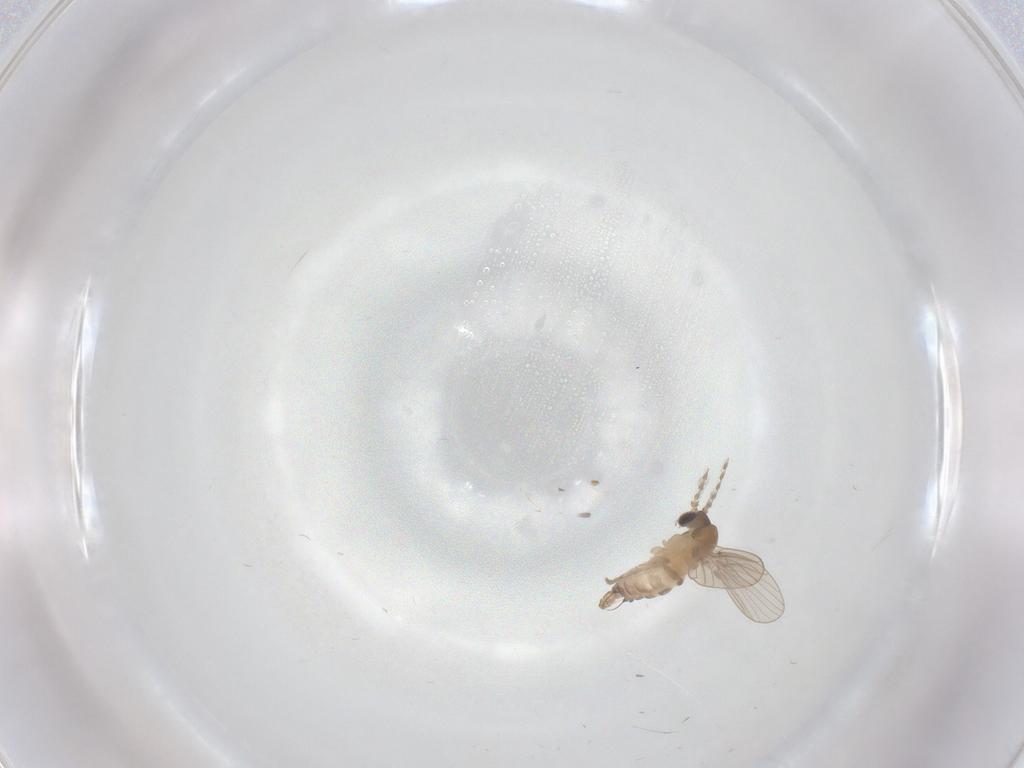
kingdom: Animalia
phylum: Arthropoda
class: Insecta
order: Diptera
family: Psychodidae
